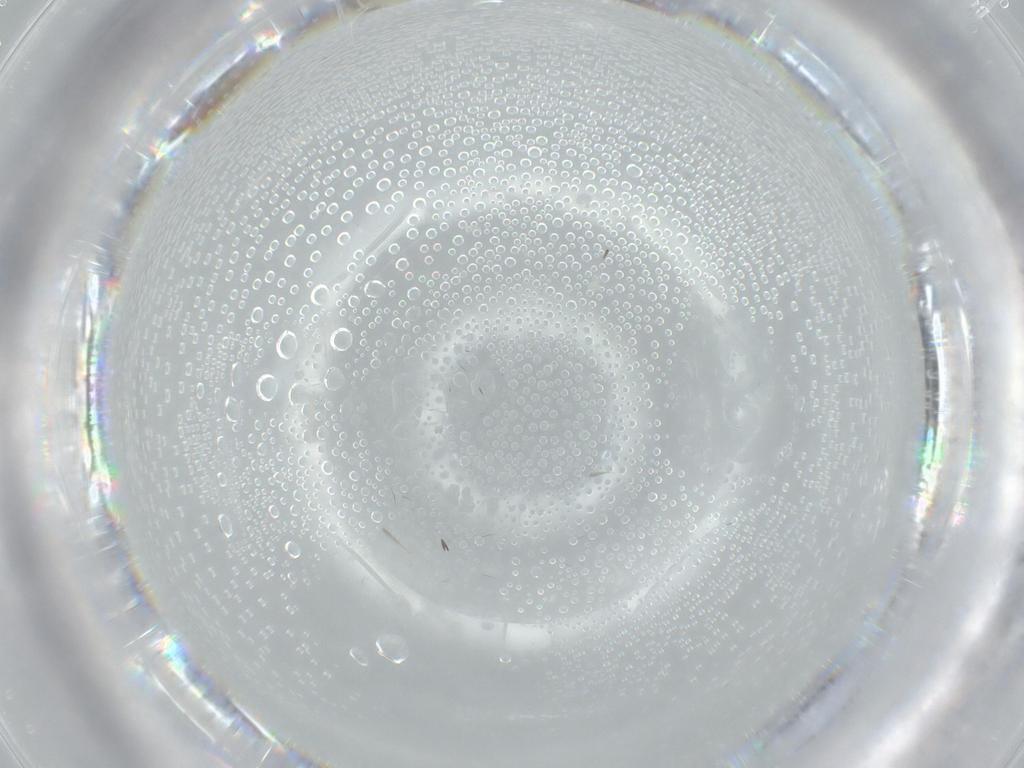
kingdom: Animalia
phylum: Arthropoda
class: Insecta
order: Orthoptera
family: Tettigoniidae
